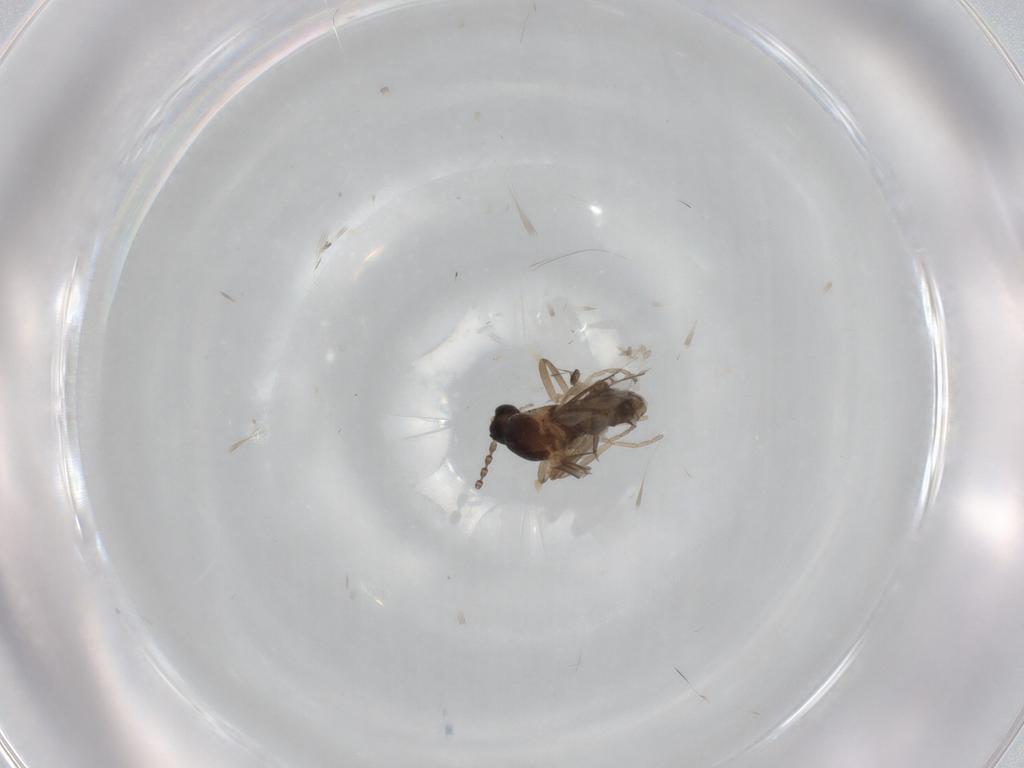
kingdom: Animalia
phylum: Arthropoda
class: Insecta
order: Diptera
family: Cecidomyiidae
